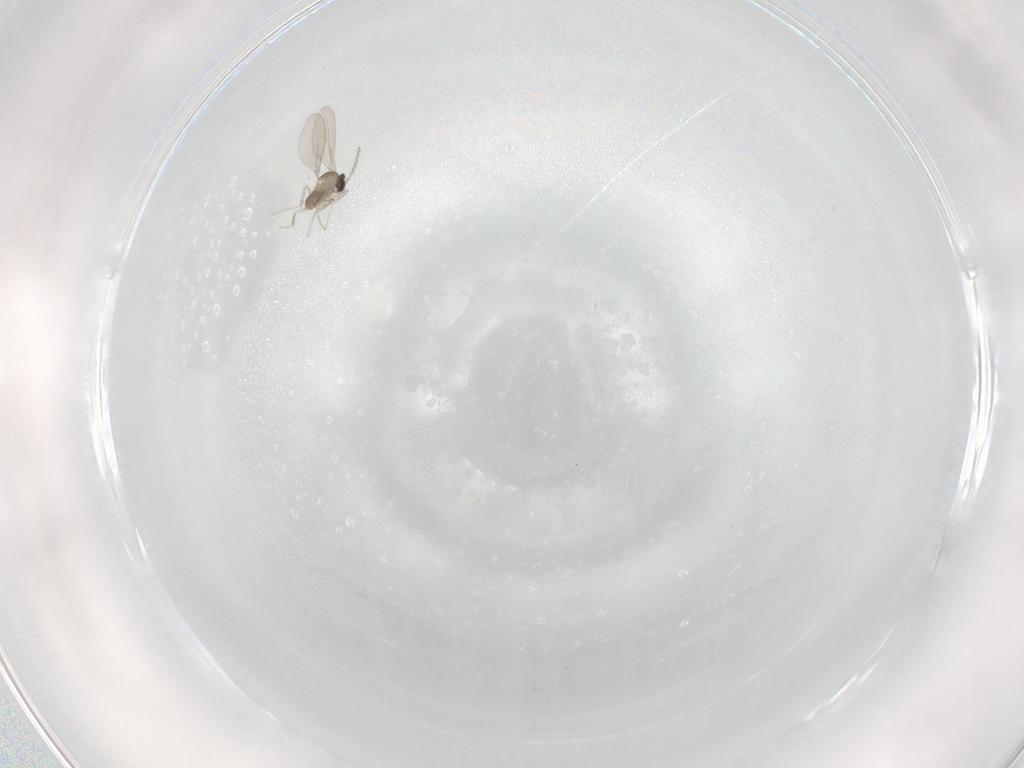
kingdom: Animalia
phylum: Arthropoda
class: Insecta
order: Diptera
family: Cecidomyiidae
